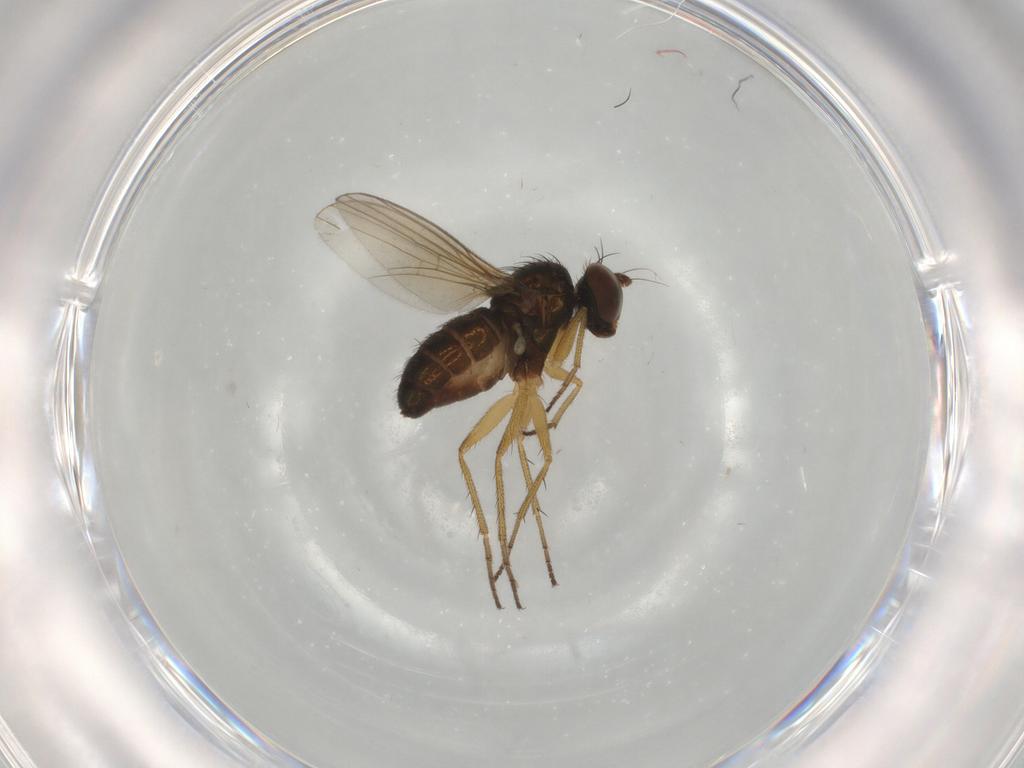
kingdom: Animalia
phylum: Arthropoda
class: Insecta
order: Diptera
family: Dolichopodidae
